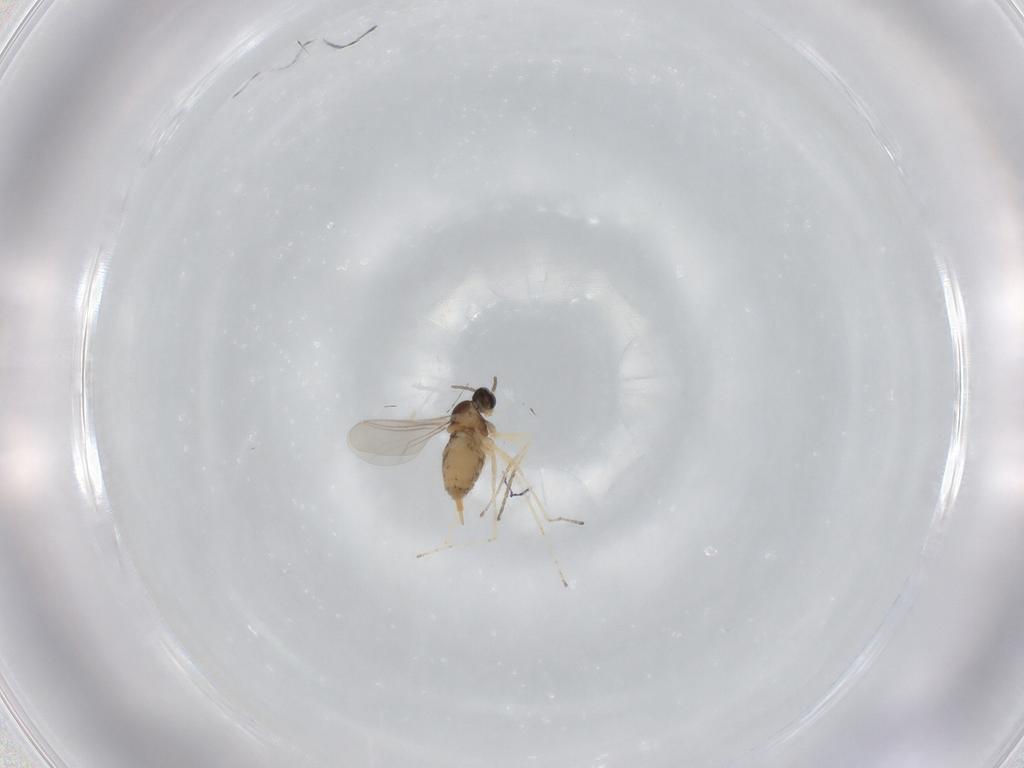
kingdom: Animalia
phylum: Arthropoda
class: Insecta
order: Diptera
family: Cecidomyiidae
